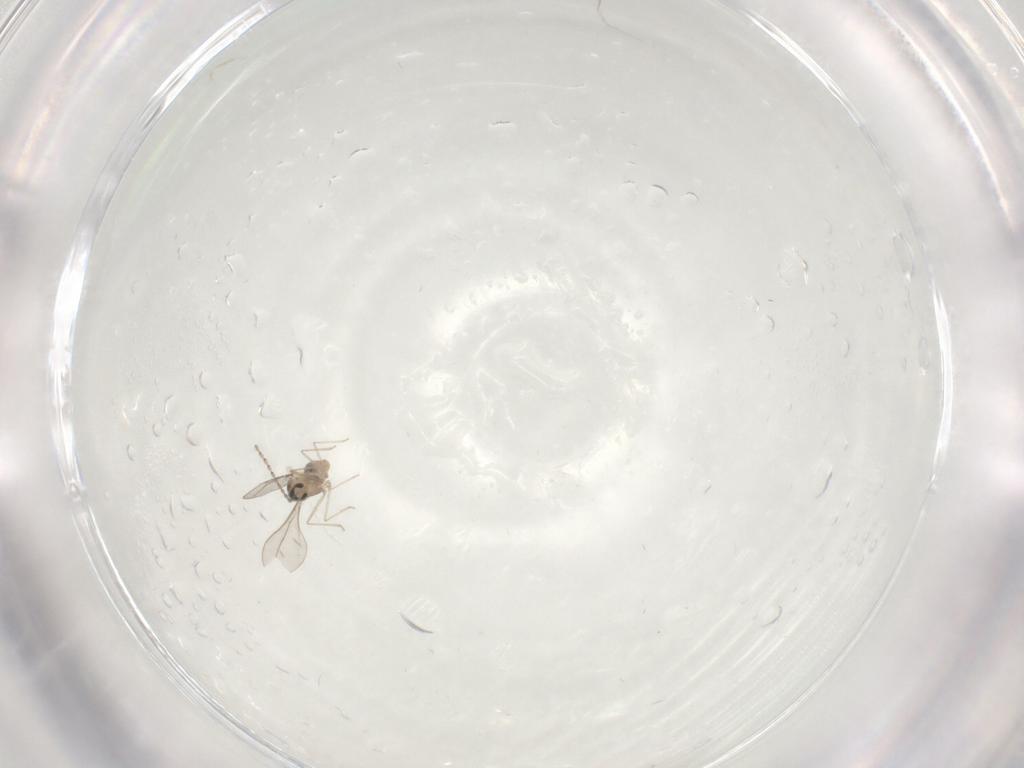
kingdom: Animalia
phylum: Arthropoda
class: Insecta
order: Diptera
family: Cecidomyiidae
